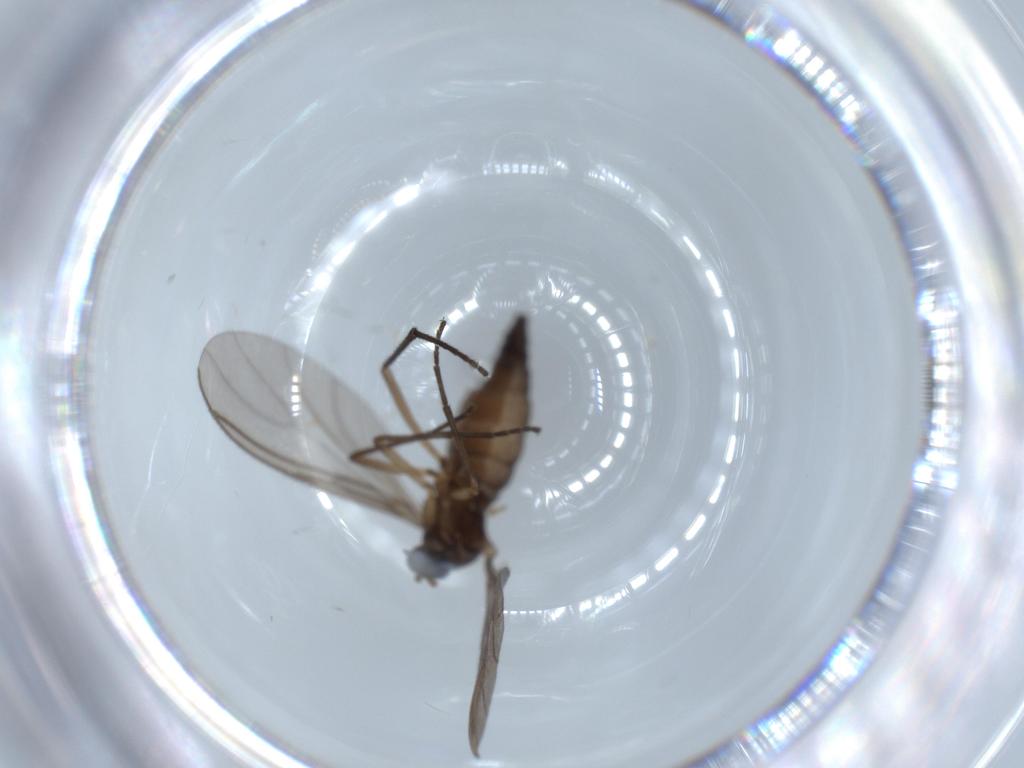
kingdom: Animalia
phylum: Arthropoda
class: Insecta
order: Diptera
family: Sciaridae
